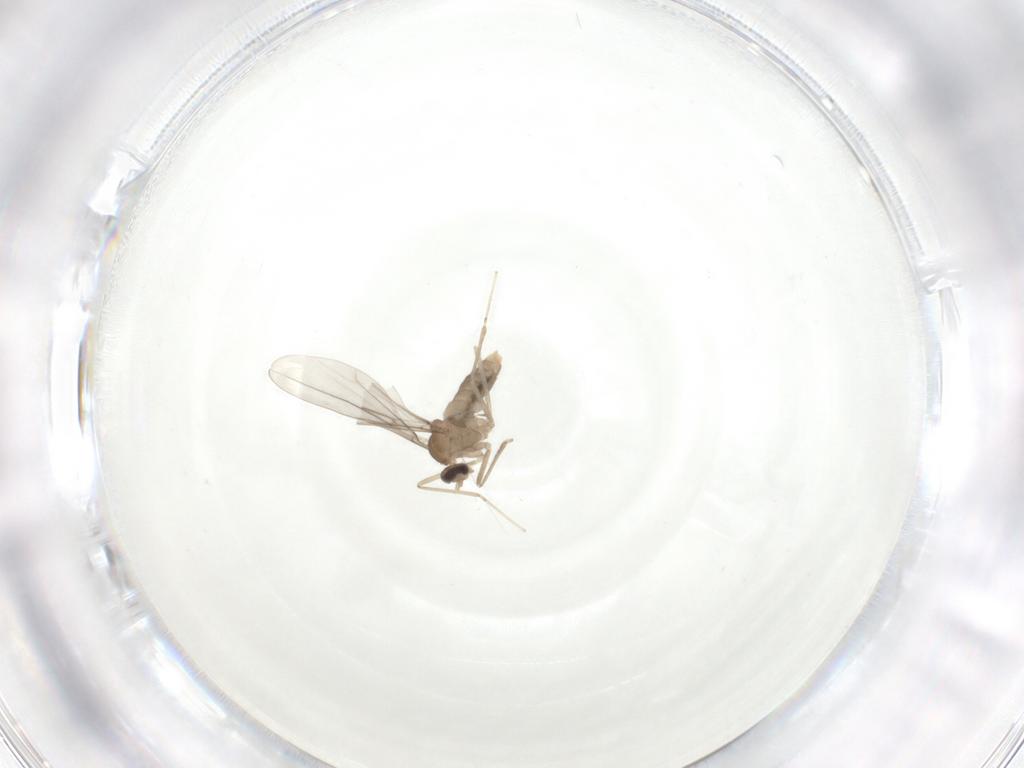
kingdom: Animalia
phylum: Arthropoda
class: Insecta
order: Diptera
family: Cecidomyiidae
